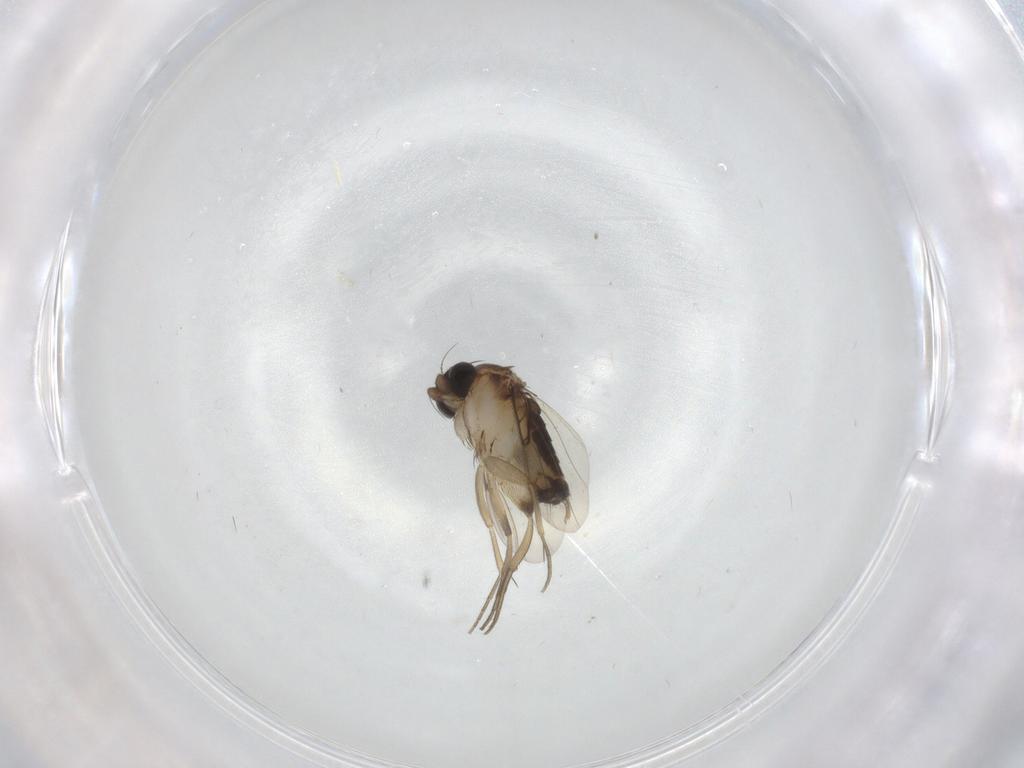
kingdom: Animalia
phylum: Arthropoda
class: Insecta
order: Diptera
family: Phoridae
